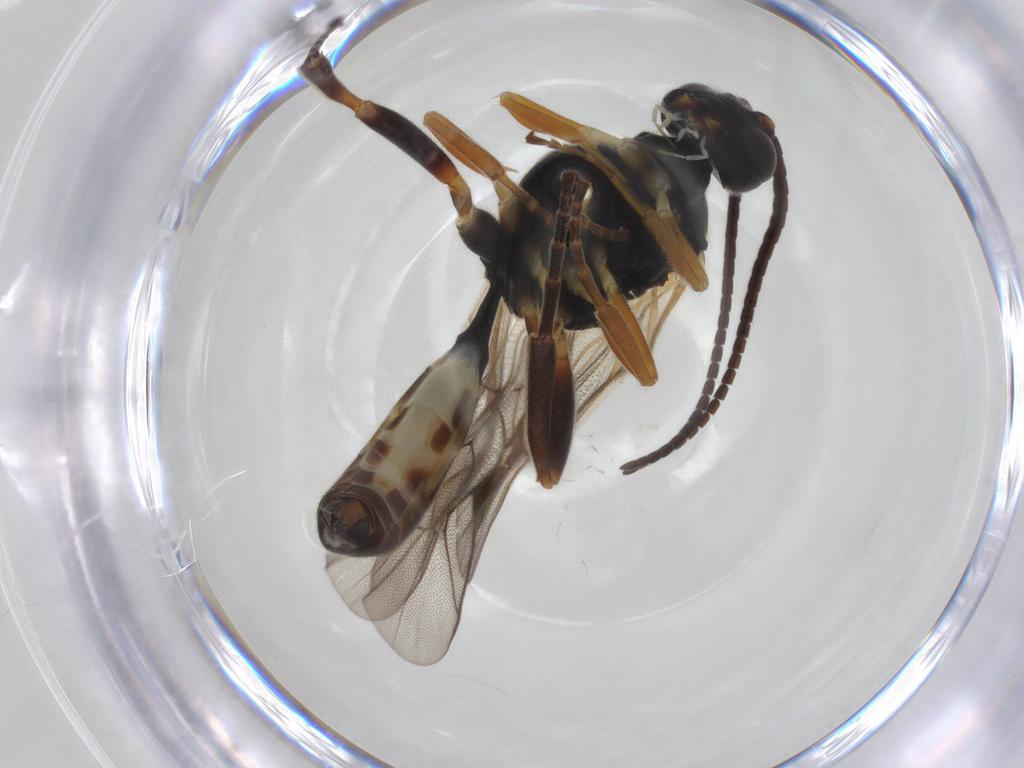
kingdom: Animalia
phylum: Arthropoda
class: Insecta
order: Hymenoptera
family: Ichneumonidae
